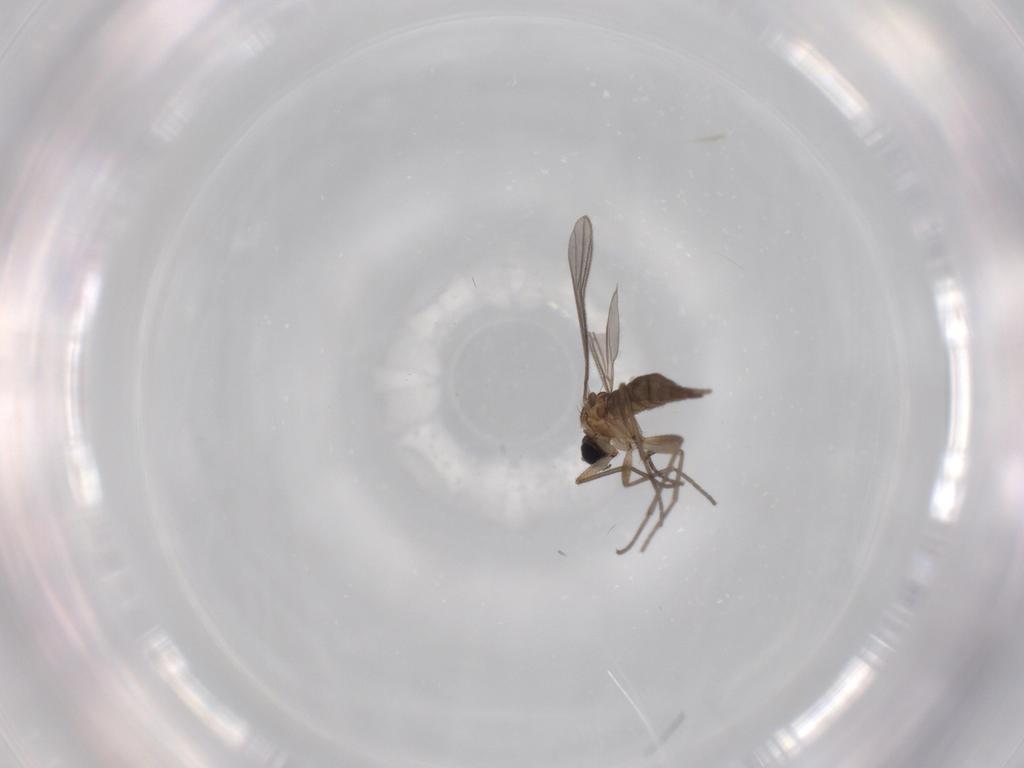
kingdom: Animalia
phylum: Arthropoda
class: Insecta
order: Diptera
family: Sciaridae
